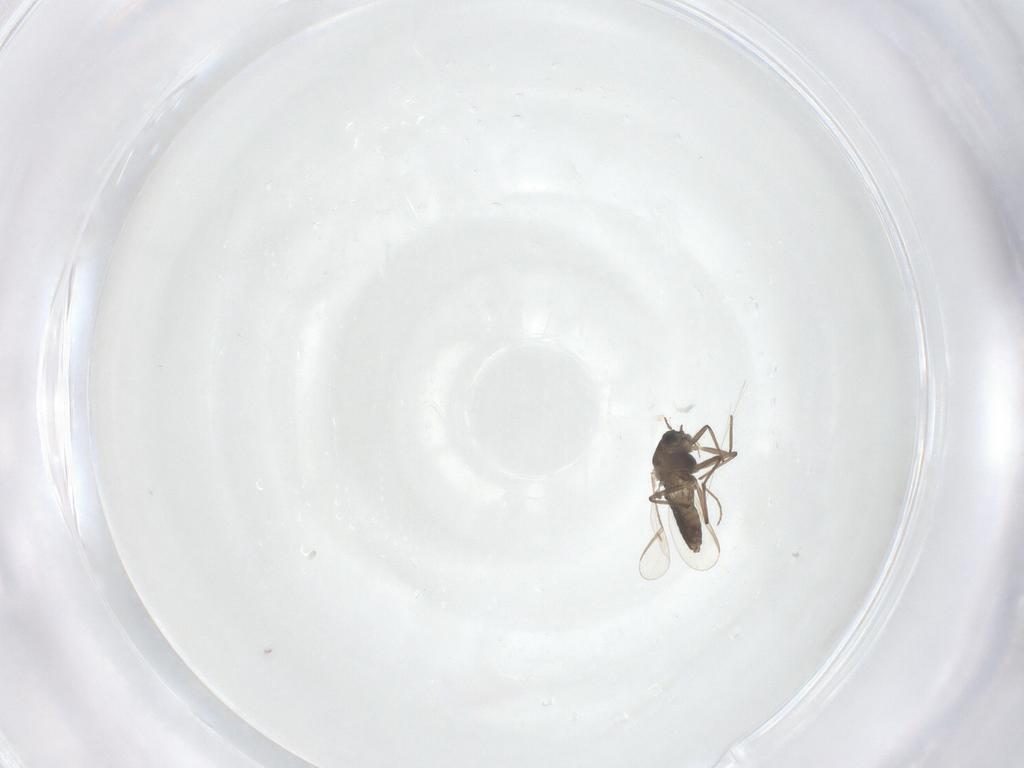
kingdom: Animalia
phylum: Arthropoda
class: Insecta
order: Diptera
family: Chironomidae
